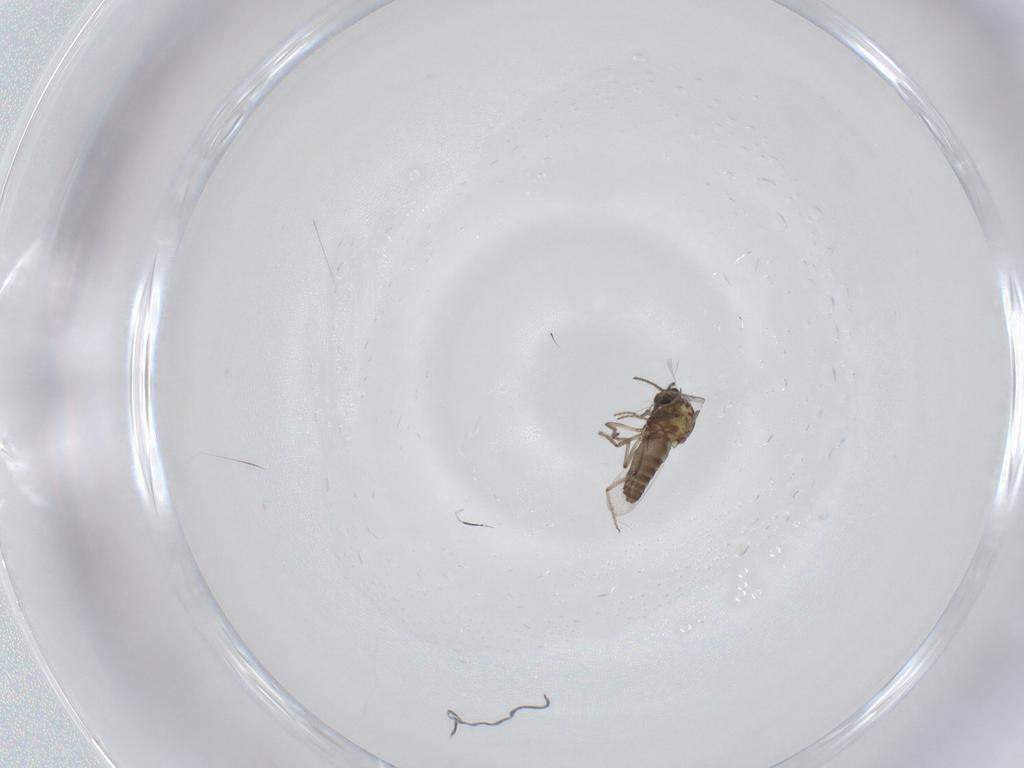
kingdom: Animalia
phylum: Arthropoda
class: Insecta
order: Diptera
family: Ceratopogonidae
